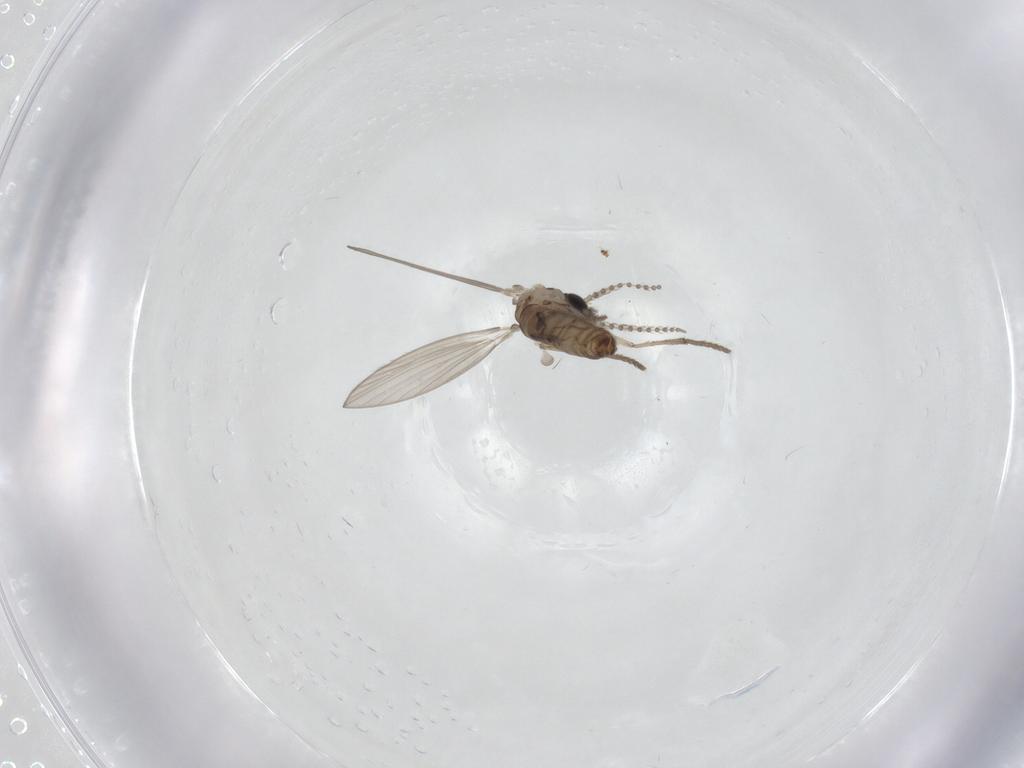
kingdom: Animalia
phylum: Arthropoda
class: Insecta
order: Diptera
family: Psychodidae
